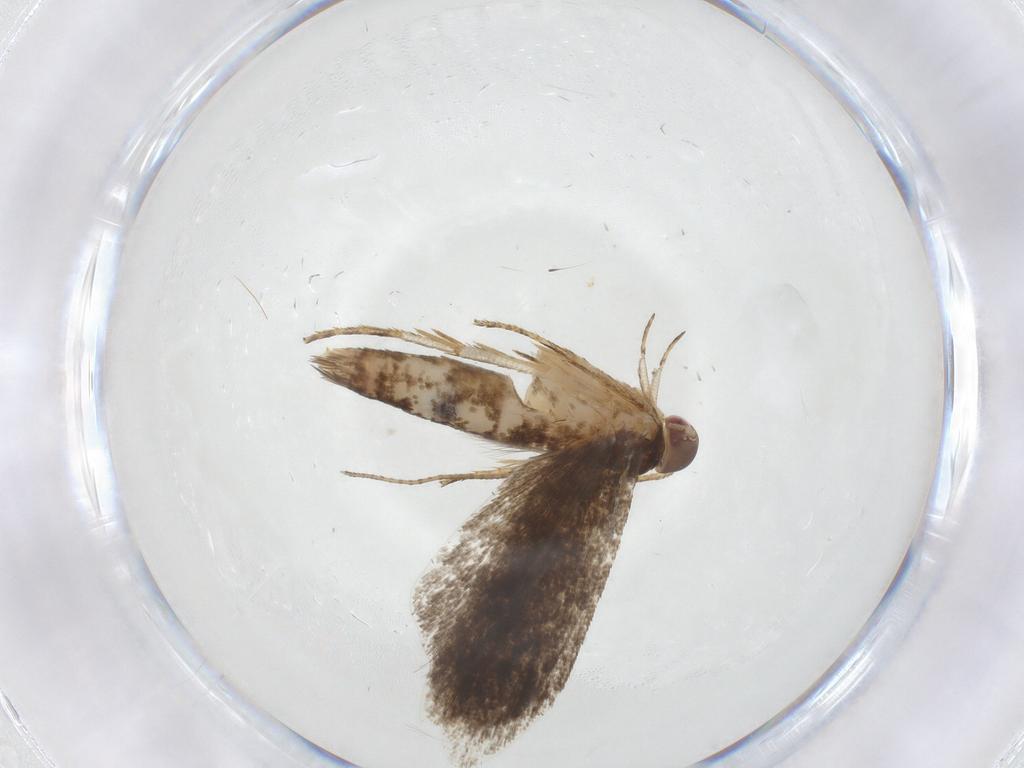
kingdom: Animalia
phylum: Arthropoda
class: Insecta
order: Lepidoptera
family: Gelechiidae
